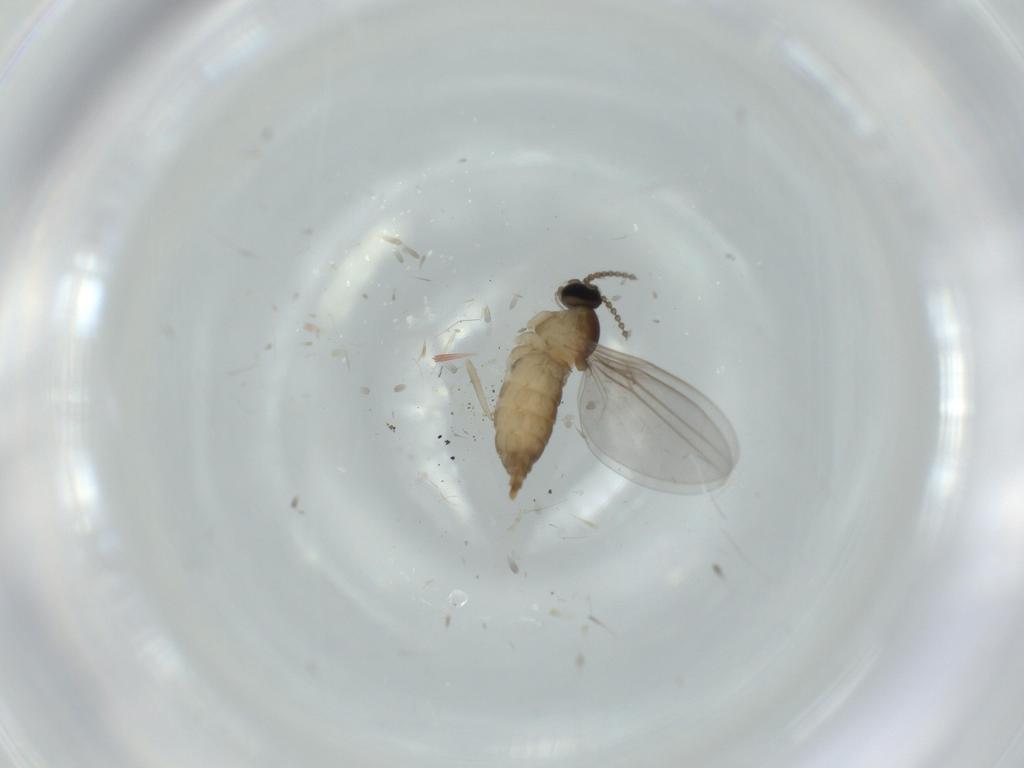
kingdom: Animalia
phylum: Arthropoda
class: Insecta
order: Diptera
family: Cecidomyiidae
